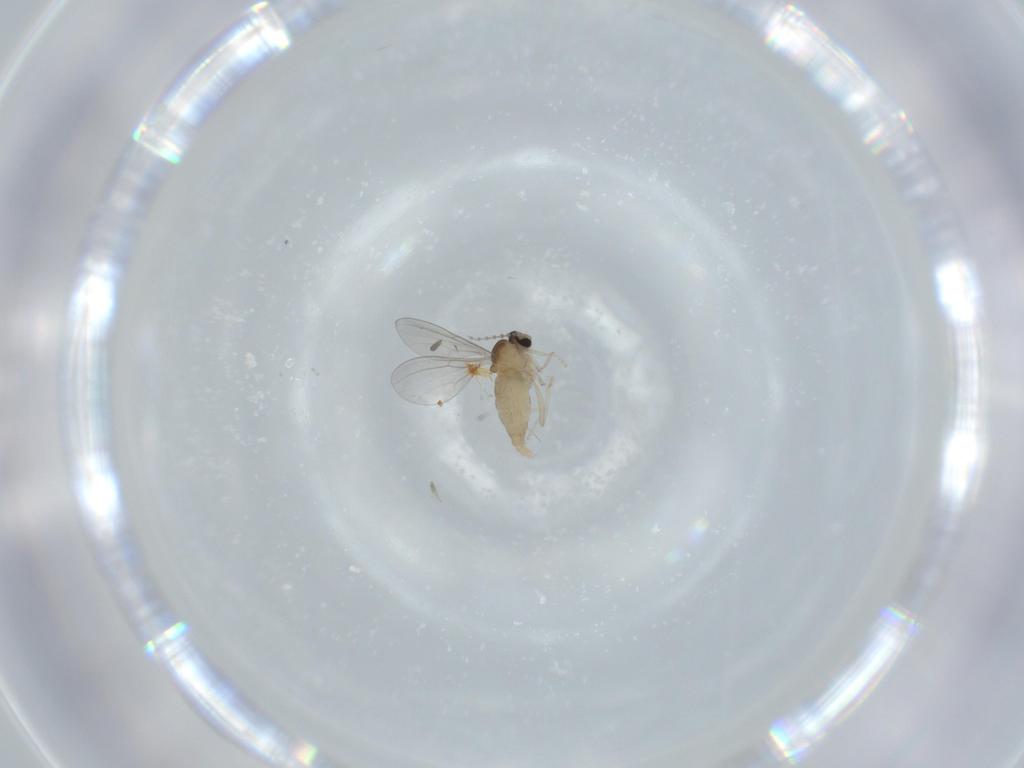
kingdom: Animalia
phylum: Arthropoda
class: Insecta
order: Diptera
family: Cecidomyiidae
